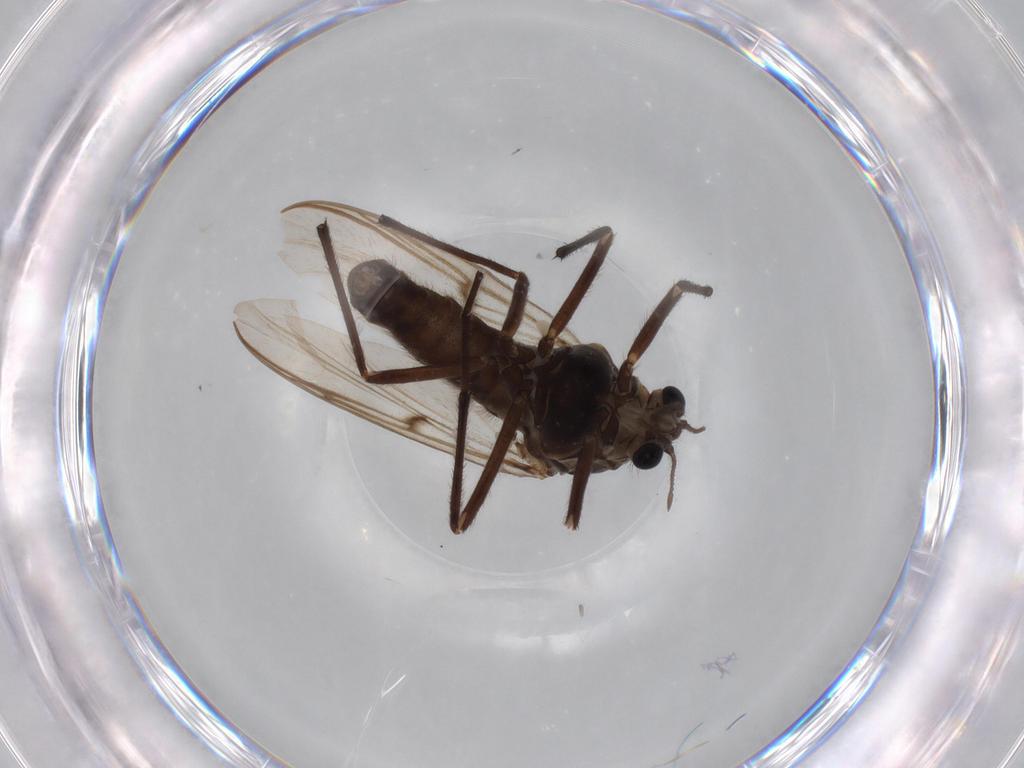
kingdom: Animalia
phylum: Arthropoda
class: Insecta
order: Diptera
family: Chironomidae
